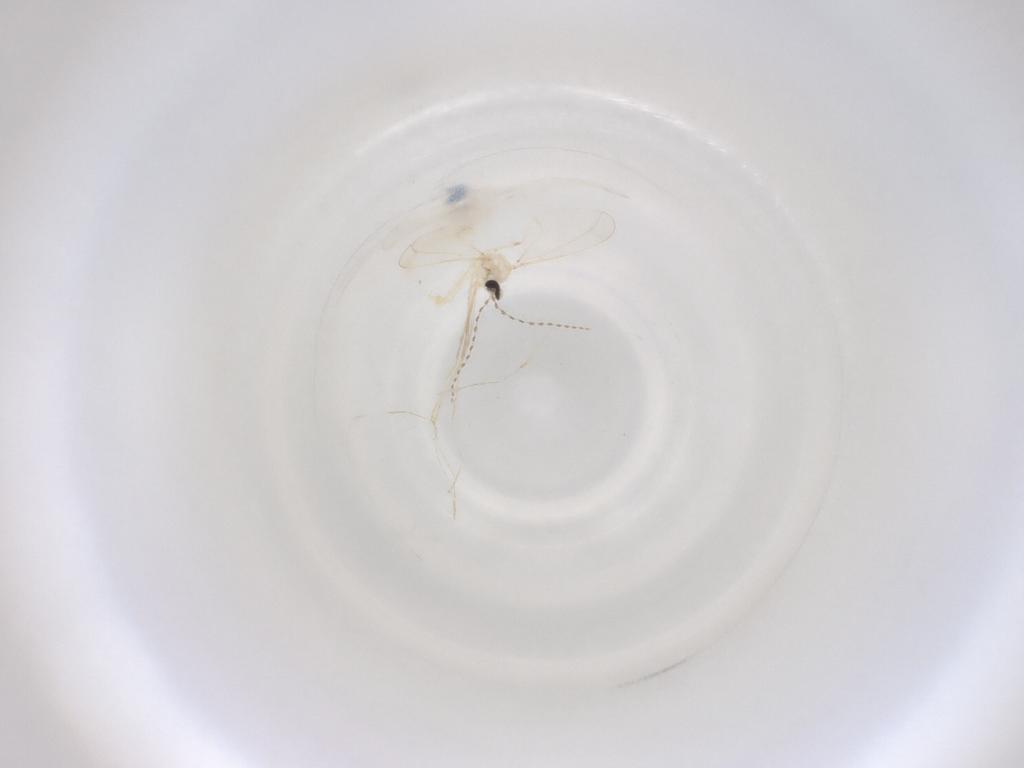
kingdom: Animalia
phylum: Arthropoda
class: Insecta
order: Diptera
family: Cecidomyiidae
